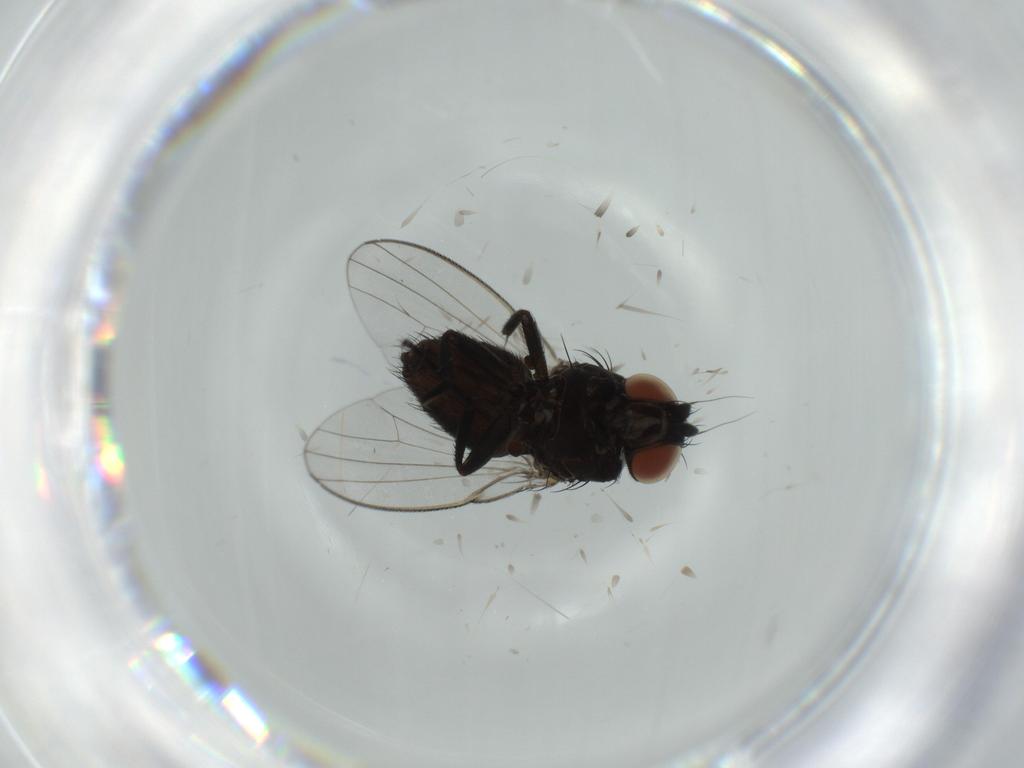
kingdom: Animalia
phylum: Arthropoda
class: Insecta
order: Diptera
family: Milichiidae
